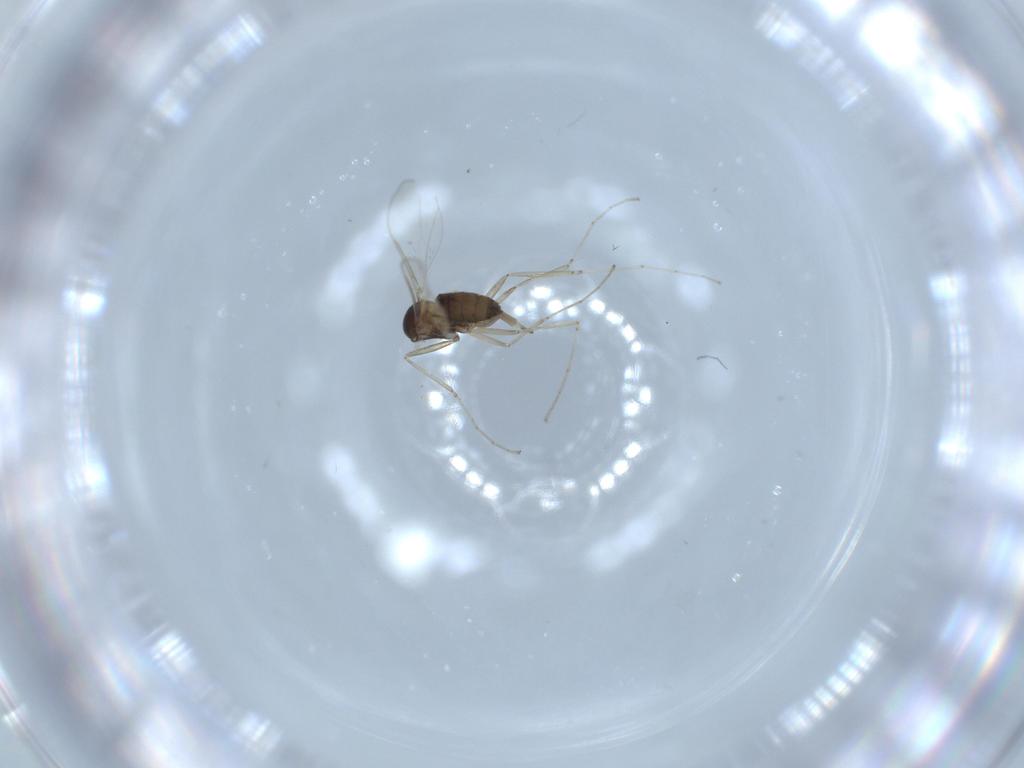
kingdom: Animalia
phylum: Arthropoda
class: Insecta
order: Diptera
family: Cecidomyiidae
